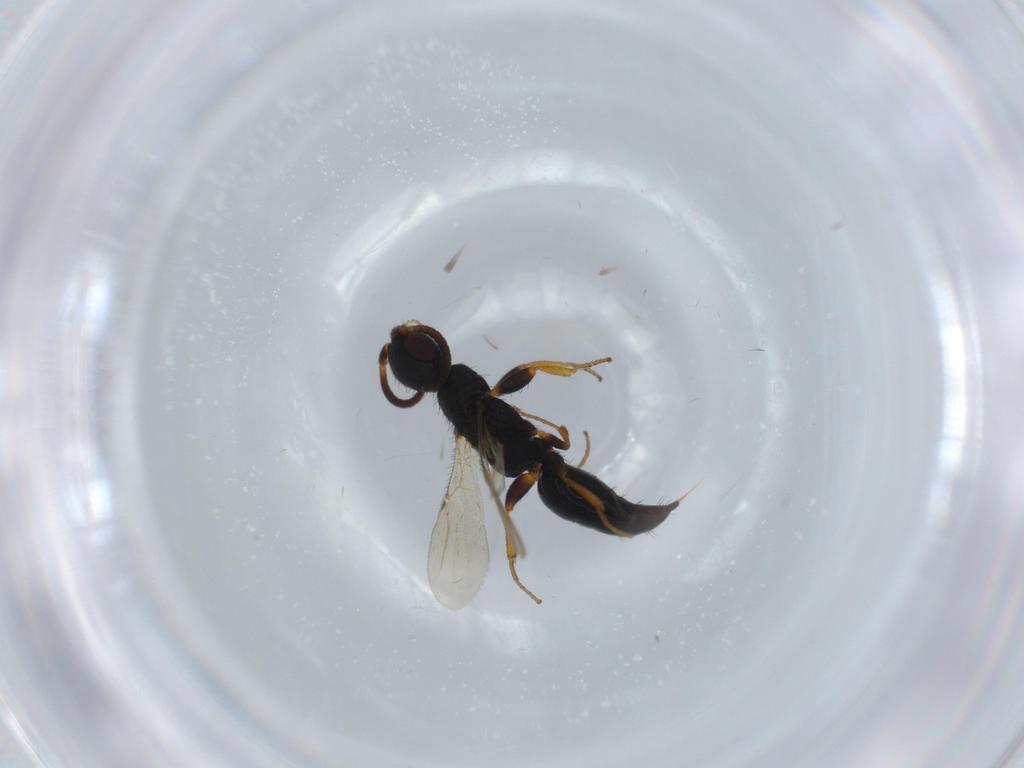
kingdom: Animalia
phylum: Arthropoda
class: Insecta
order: Hymenoptera
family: Bethylidae
